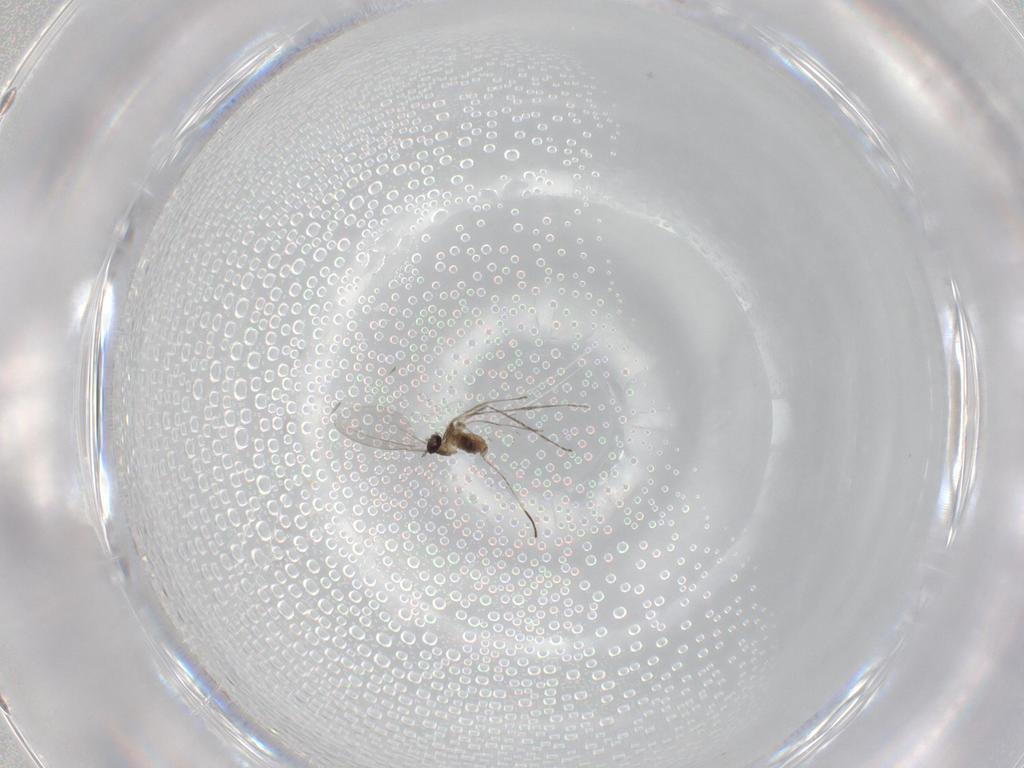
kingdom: Animalia
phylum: Arthropoda
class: Insecta
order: Diptera
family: Cecidomyiidae
